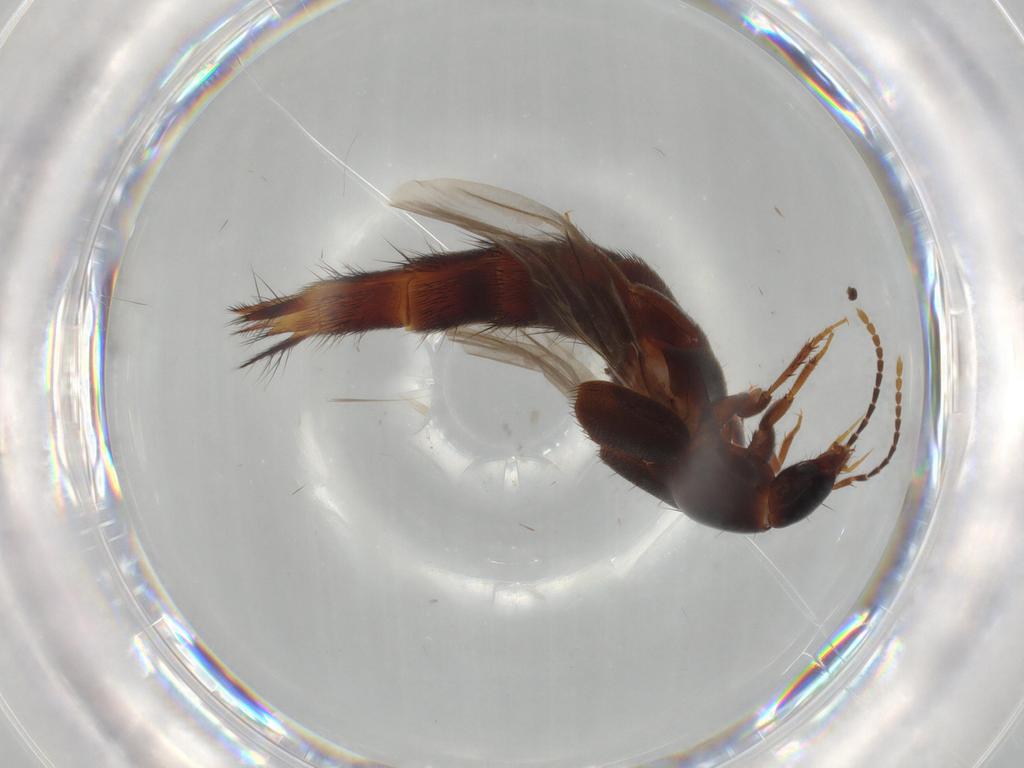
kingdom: Animalia
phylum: Arthropoda
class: Insecta
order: Coleoptera
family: Staphylinidae
